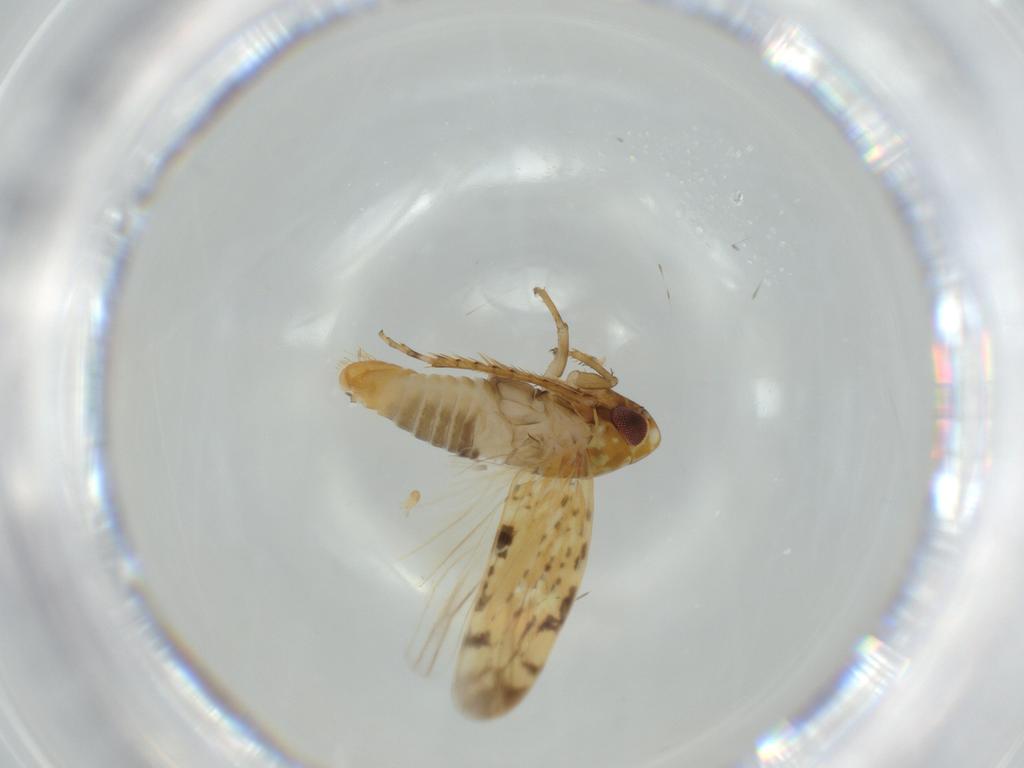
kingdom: Animalia
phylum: Arthropoda
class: Insecta
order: Hemiptera
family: Cicadellidae
